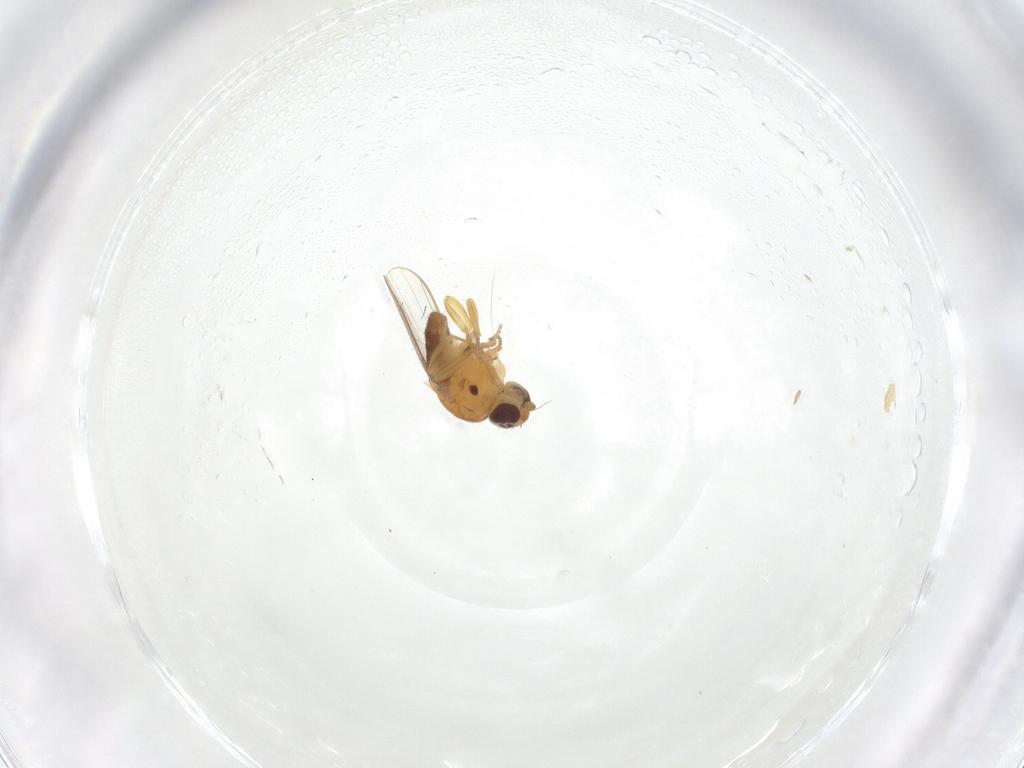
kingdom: Animalia
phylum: Arthropoda
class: Insecta
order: Diptera
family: Chloropidae
